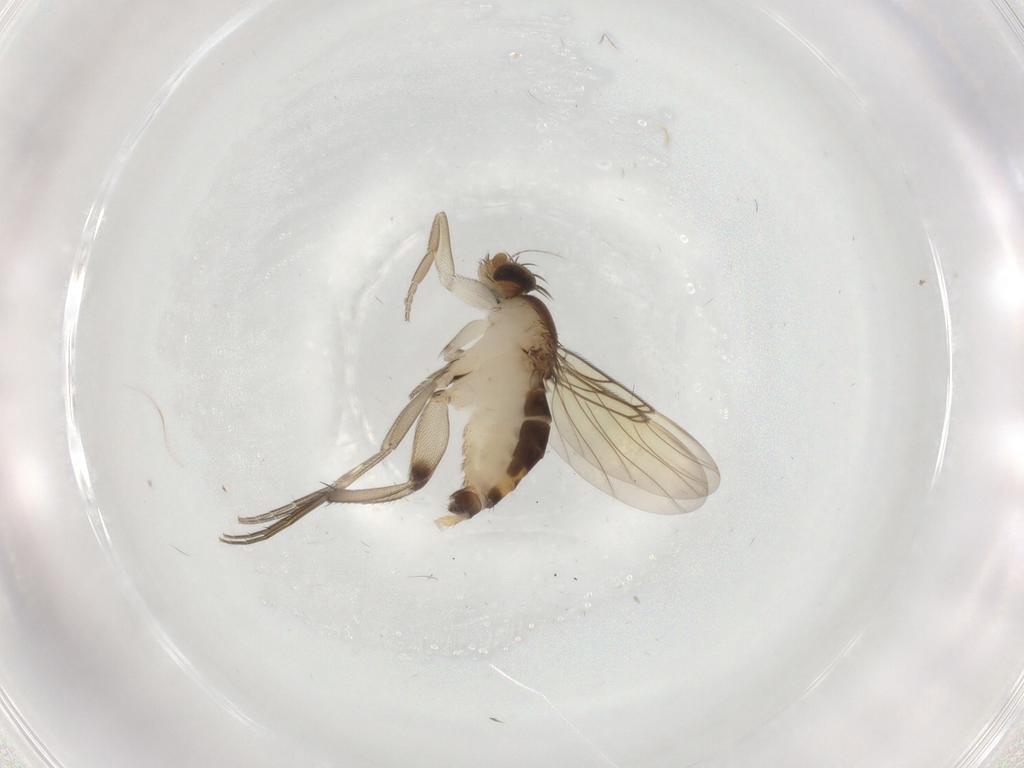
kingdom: Animalia
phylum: Arthropoda
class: Insecta
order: Diptera
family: Phoridae
